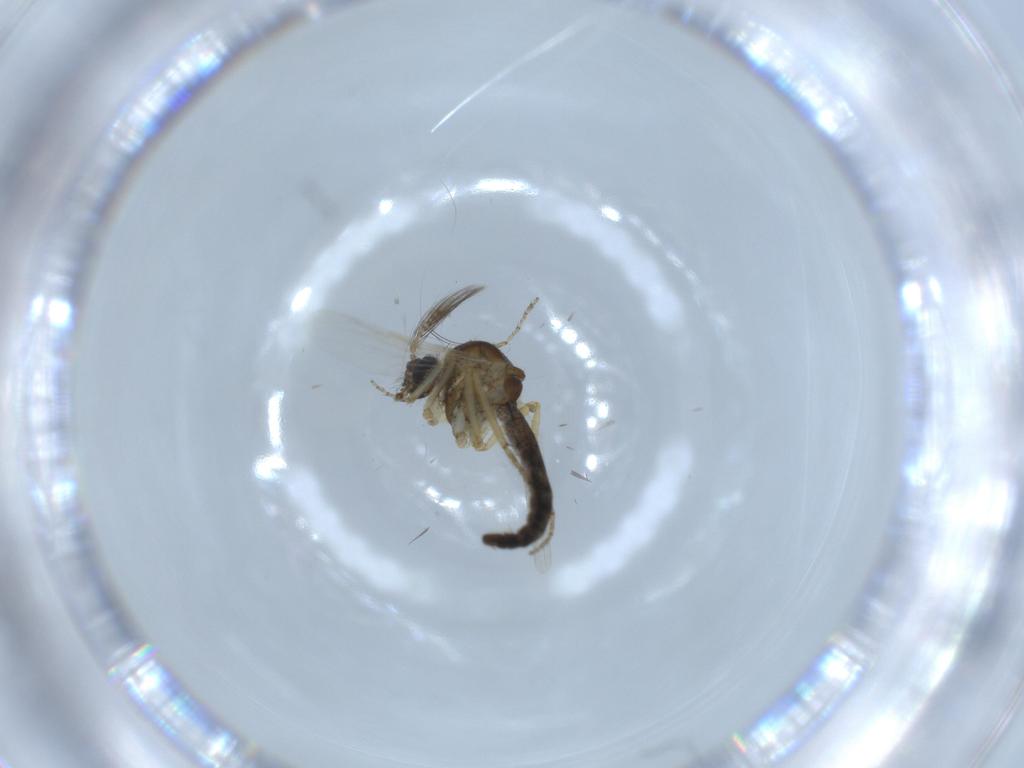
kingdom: Animalia
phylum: Arthropoda
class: Insecta
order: Diptera
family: Ceratopogonidae
